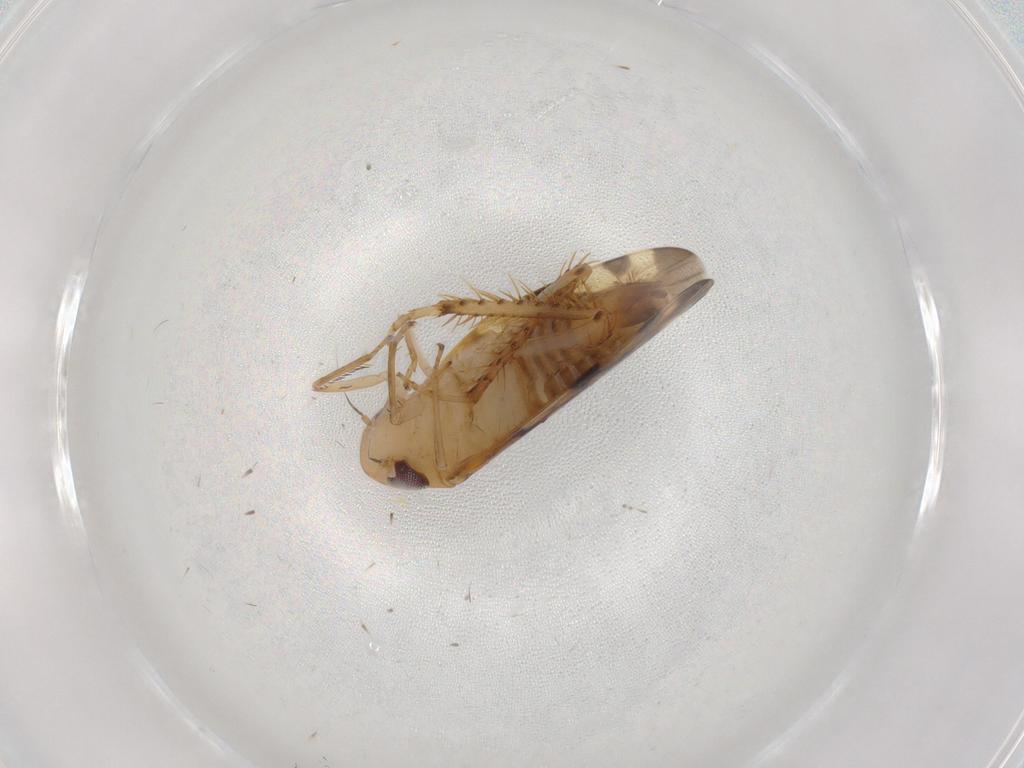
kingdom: Animalia
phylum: Arthropoda
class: Insecta
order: Hemiptera
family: Cicadellidae
